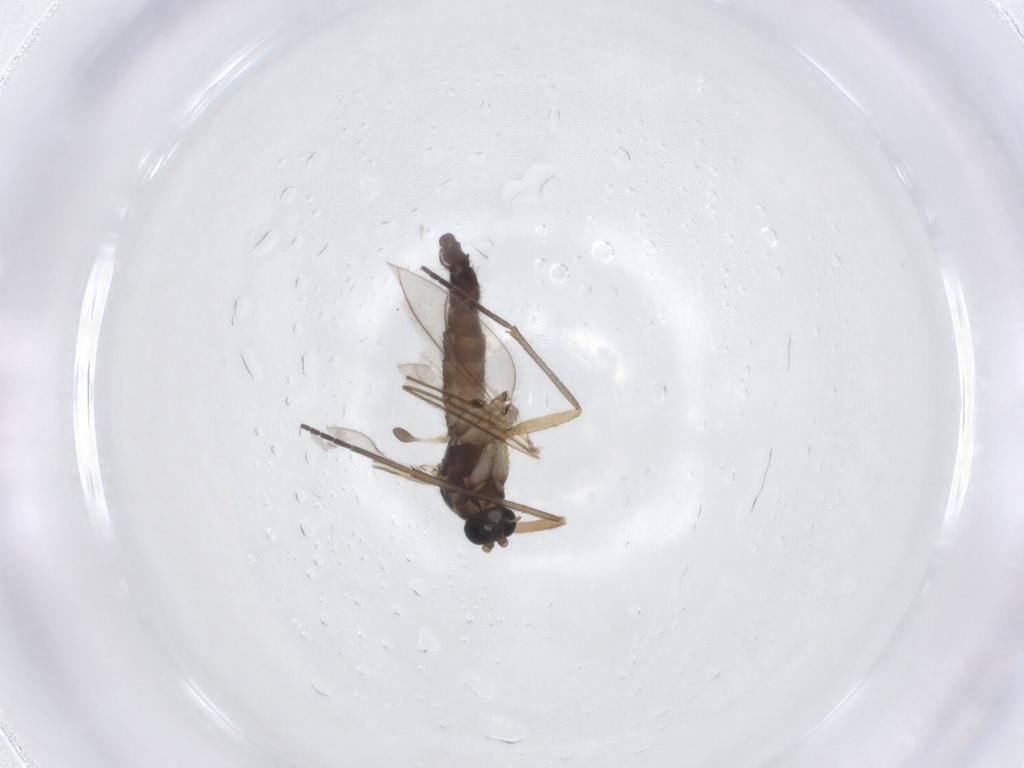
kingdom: Animalia
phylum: Arthropoda
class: Insecta
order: Diptera
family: Sciaridae
